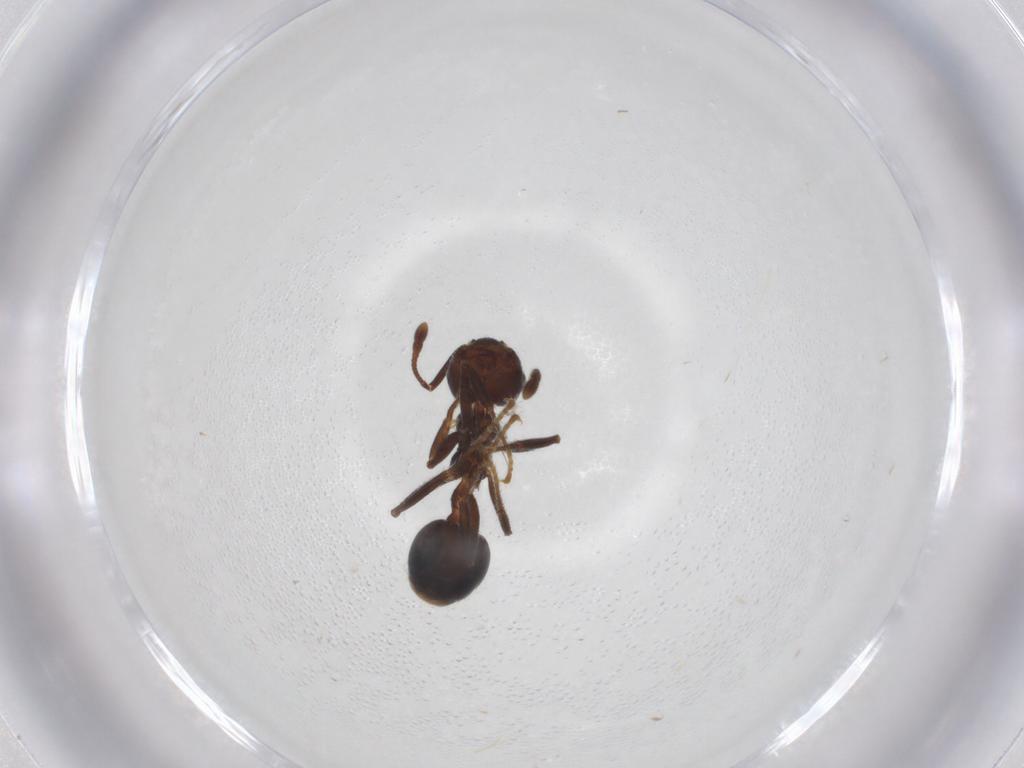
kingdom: Animalia
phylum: Arthropoda
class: Insecta
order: Hymenoptera
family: Formicidae
